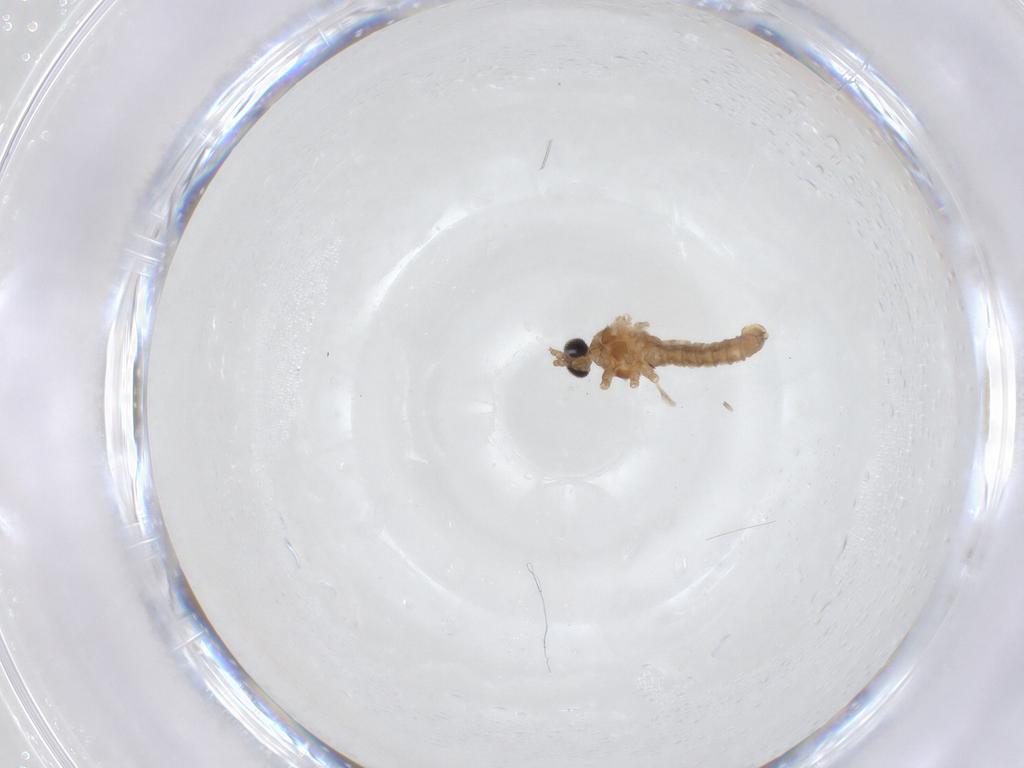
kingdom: Animalia
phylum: Arthropoda
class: Insecta
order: Diptera
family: Cecidomyiidae
